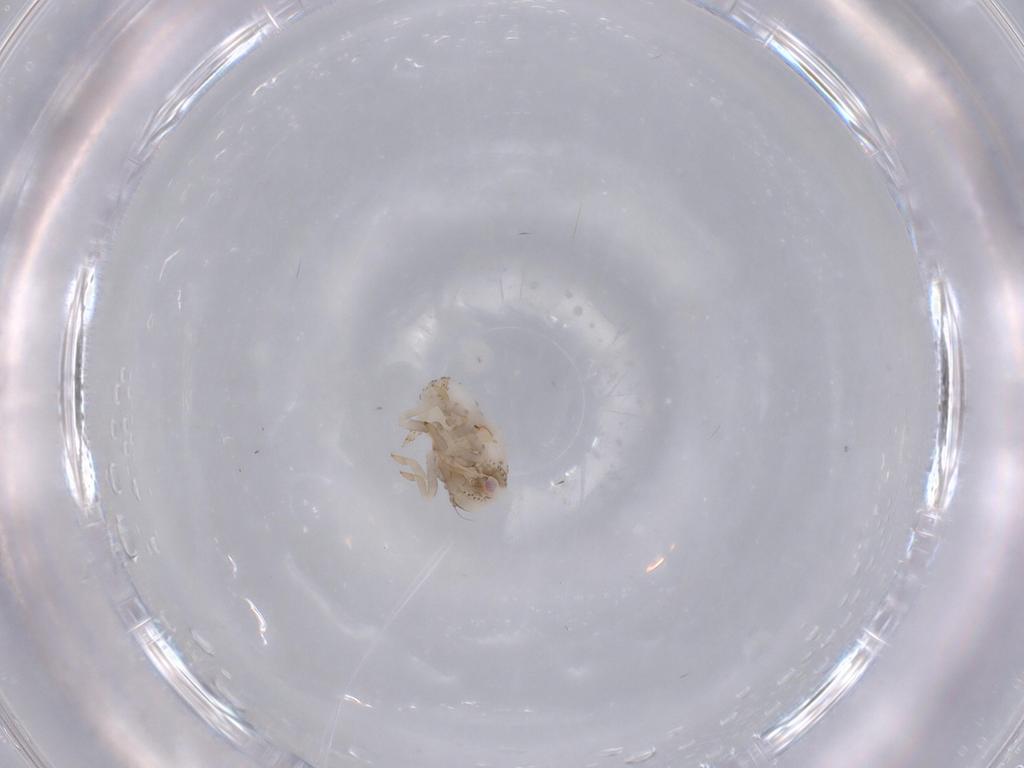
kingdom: Animalia
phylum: Arthropoda
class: Insecta
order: Hemiptera
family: Acanaloniidae
